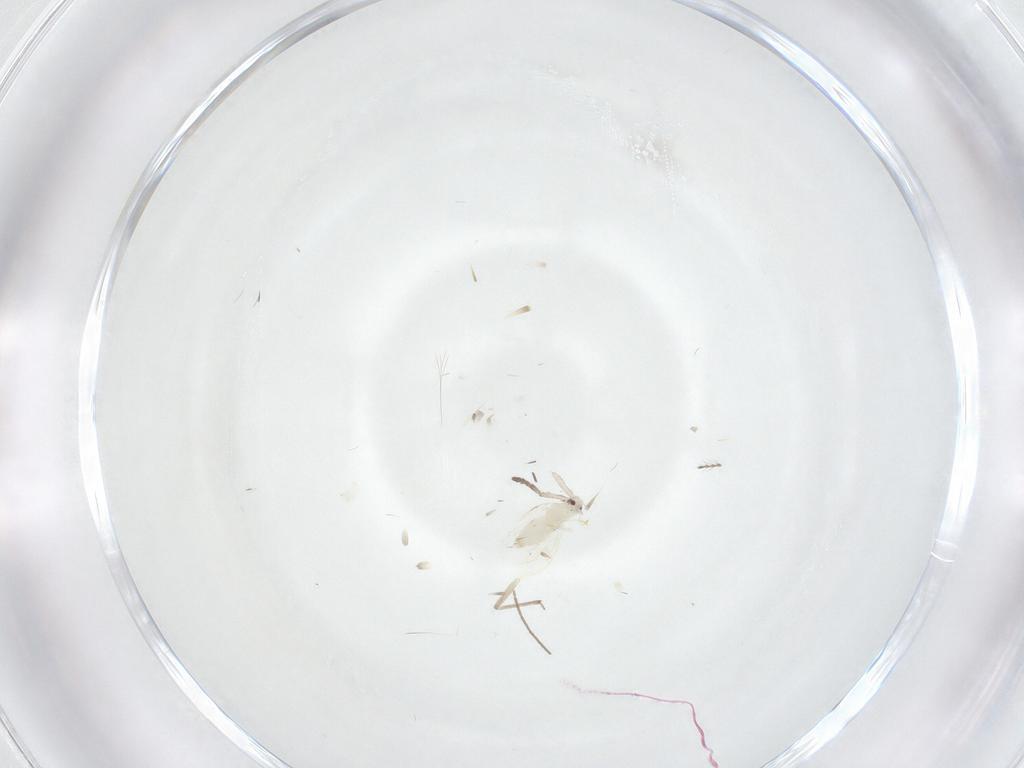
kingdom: Animalia
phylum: Arthropoda
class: Insecta
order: Hemiptera
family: Aleyrodidae
